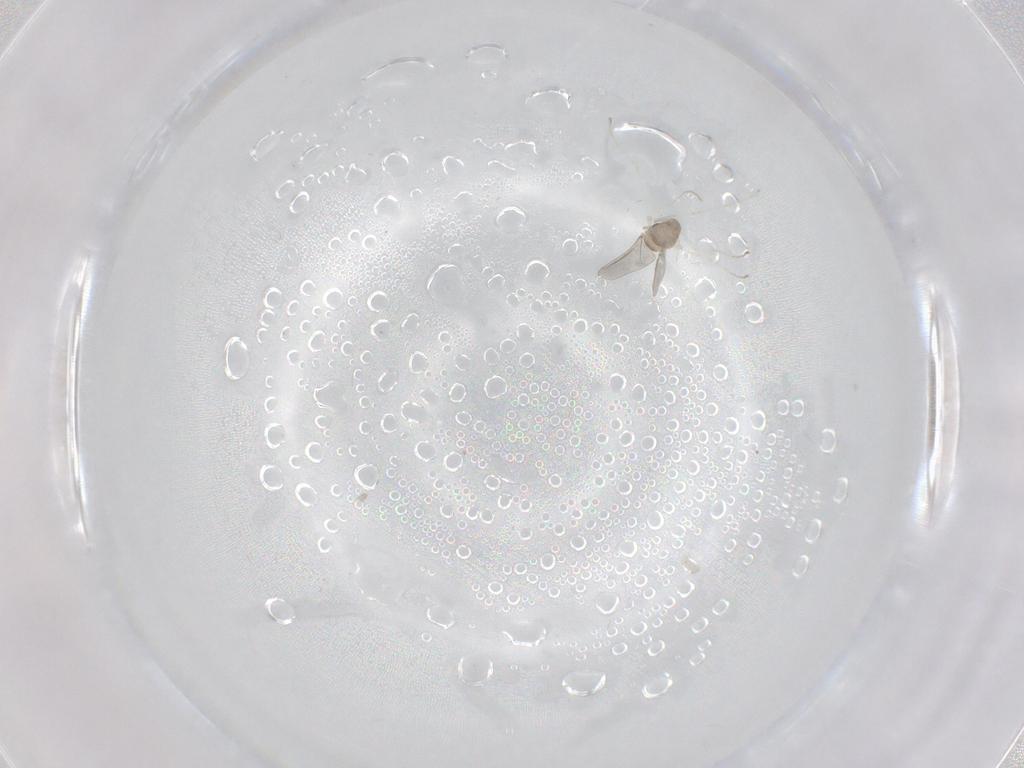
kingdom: Animalia
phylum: Arthropoda
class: Insecta
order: Diptera
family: Cecidomyiidae
